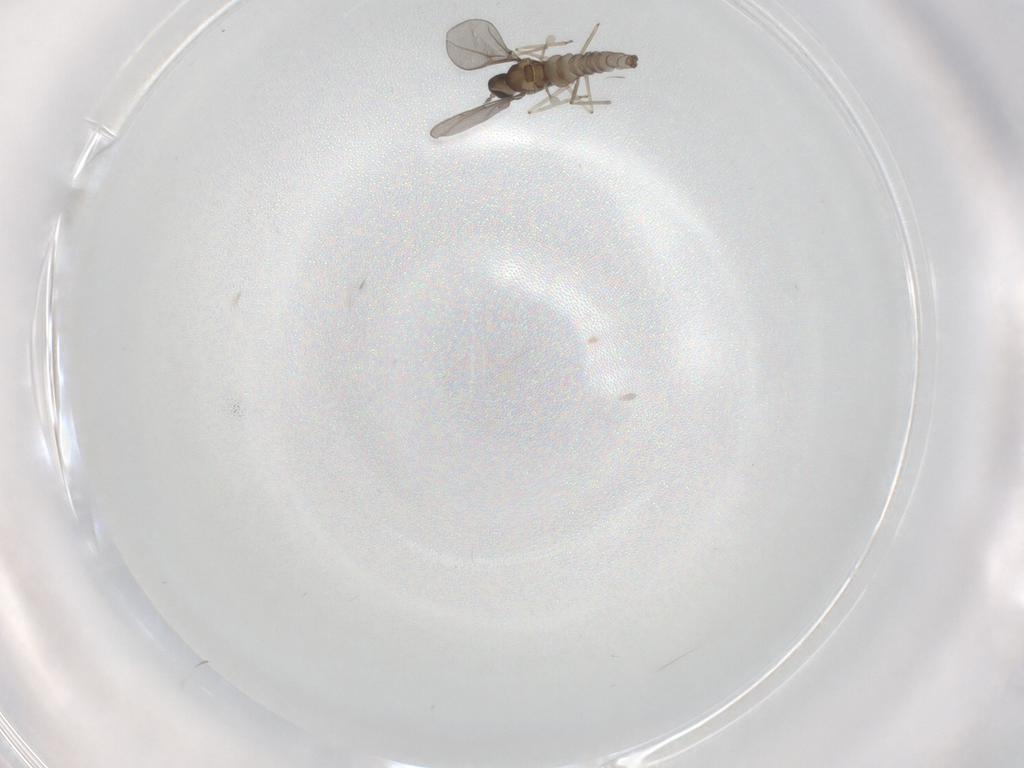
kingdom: Animalia
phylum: Arthropoda
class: Insecta
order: Diptera
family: Cecidomyiidae
